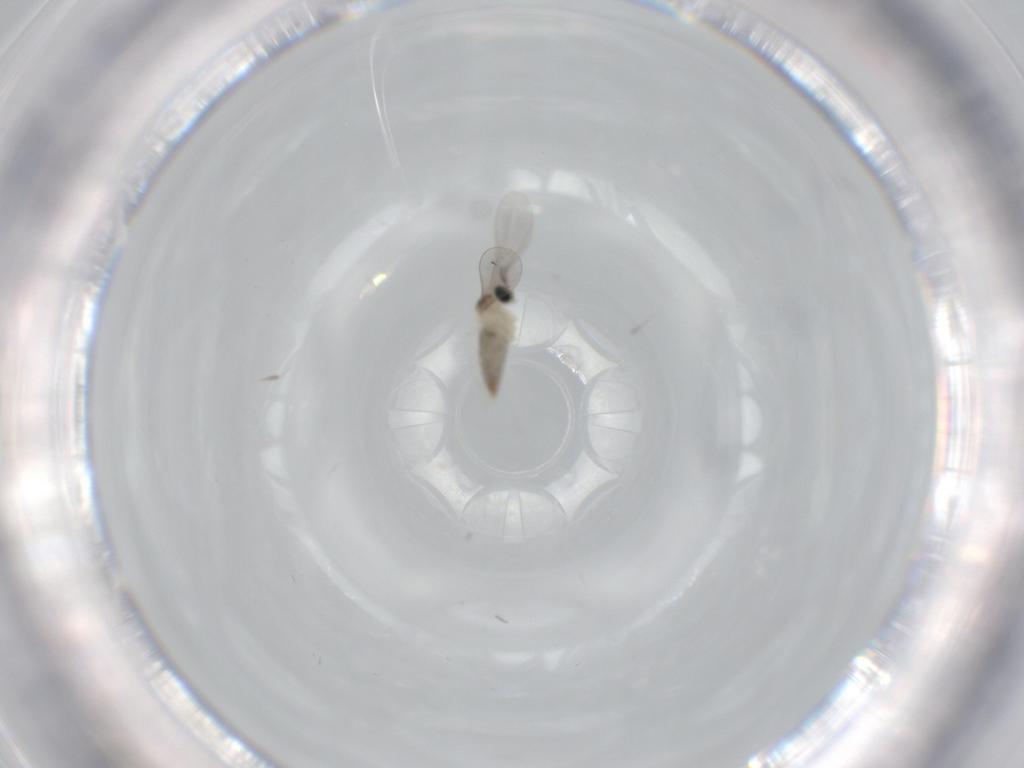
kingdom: Animalia
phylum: Arthropoda
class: Insecta
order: Diptera
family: Cecidomyiidae
